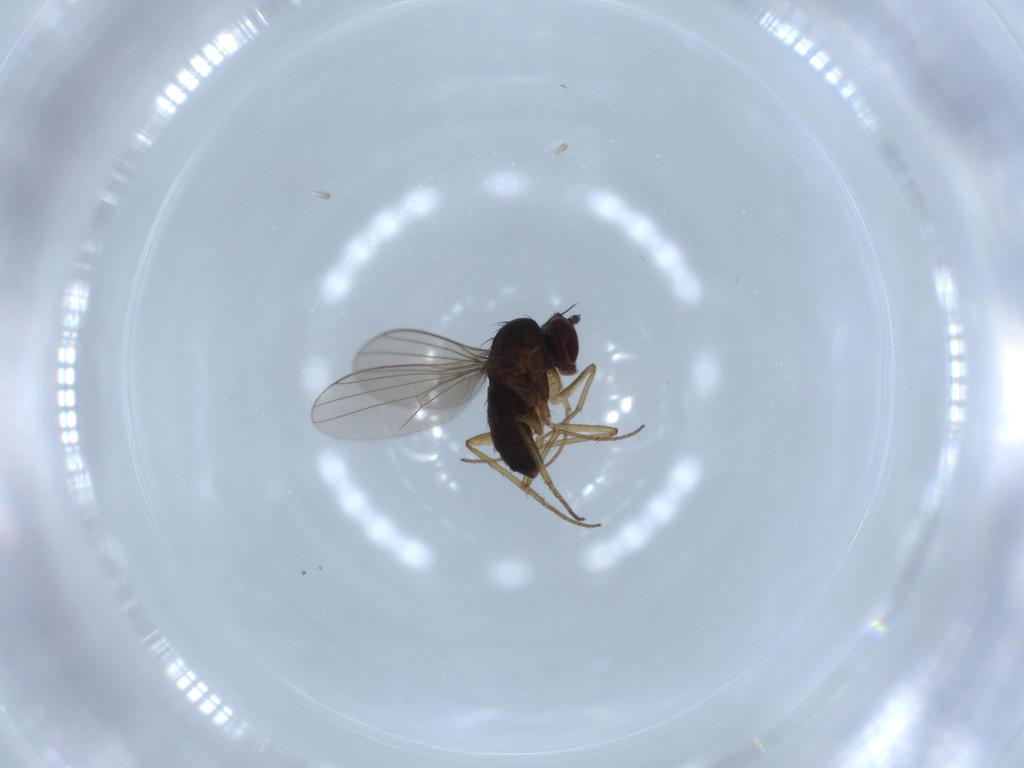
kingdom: Animalia
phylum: Arthropoda
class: Insecta
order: Diptera
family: Dolichopodidae
